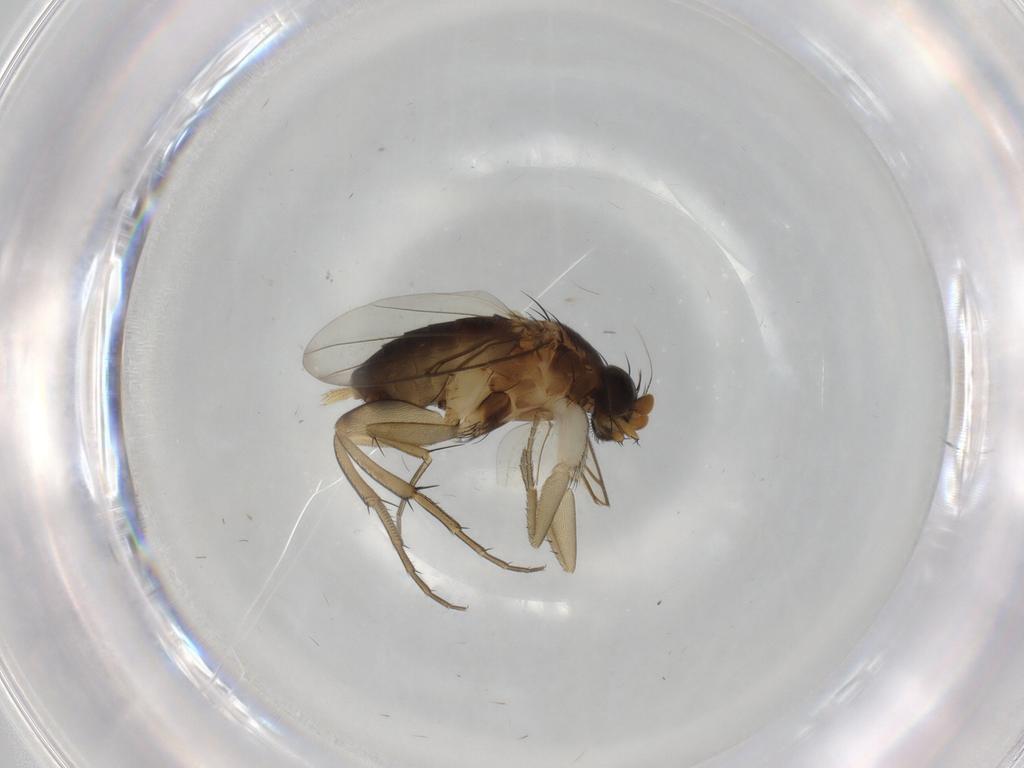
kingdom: Animalia
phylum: Arthropoda
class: Insecta
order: Diptera
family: Phoridae
